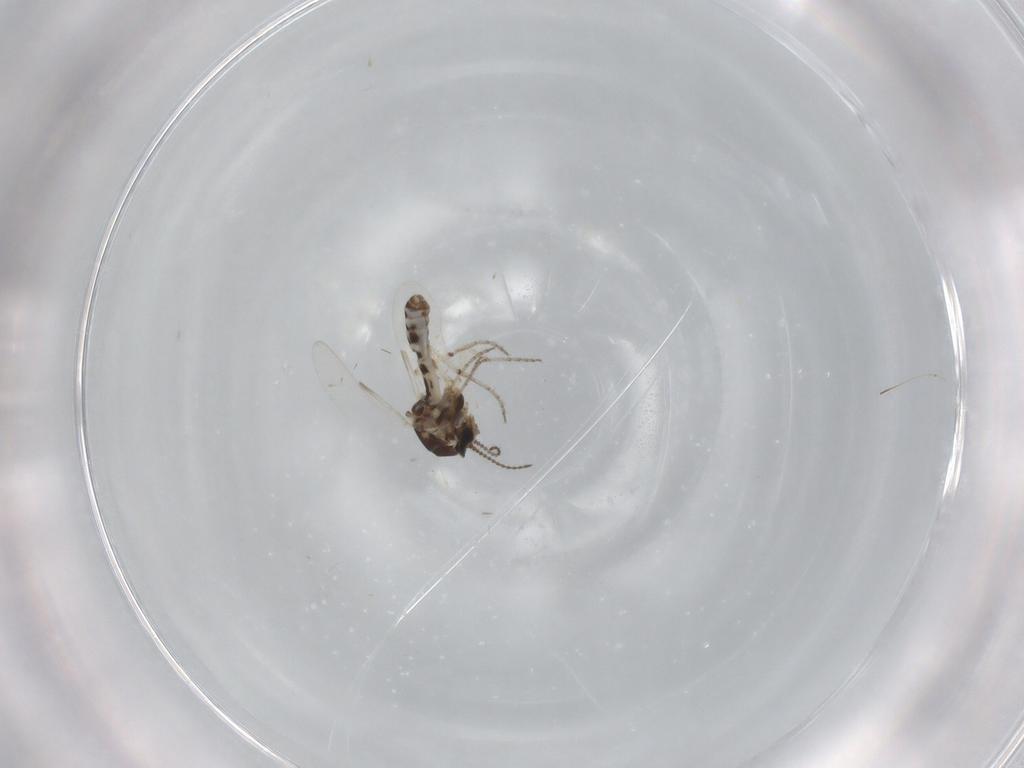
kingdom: Animalia
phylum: Arthropoda
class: Insecta
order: Diptera
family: Ceratopogonidae
